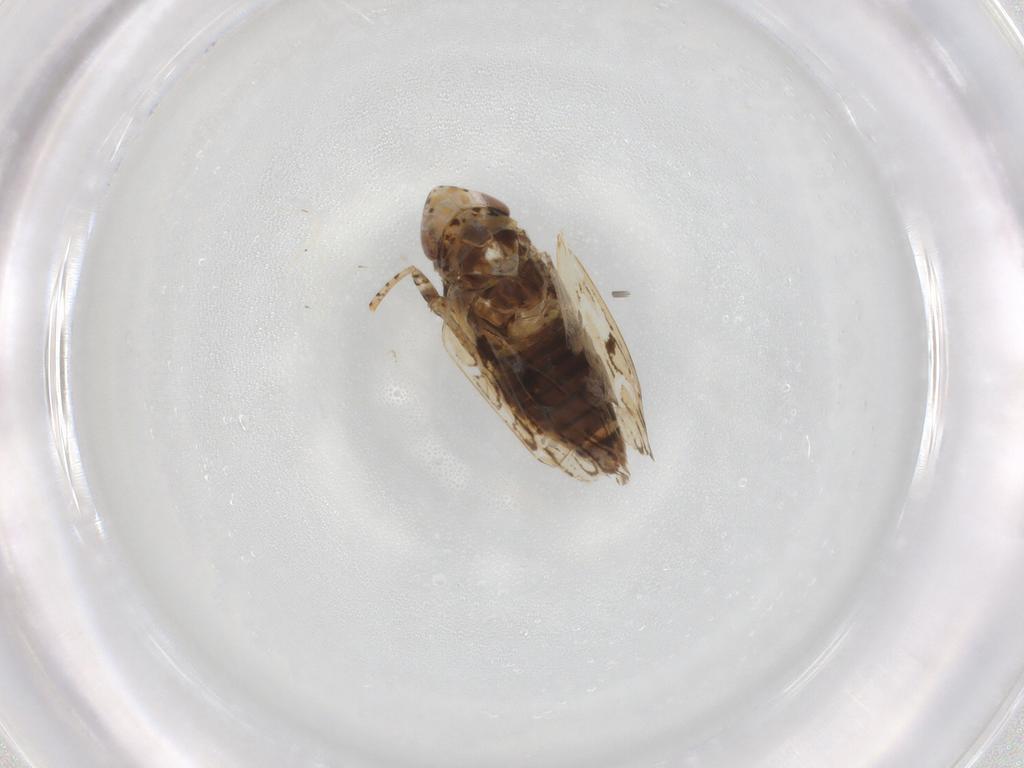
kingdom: Animalia
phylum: Arthropoda
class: Insecta
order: Hemiptera
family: Cicadellidae
